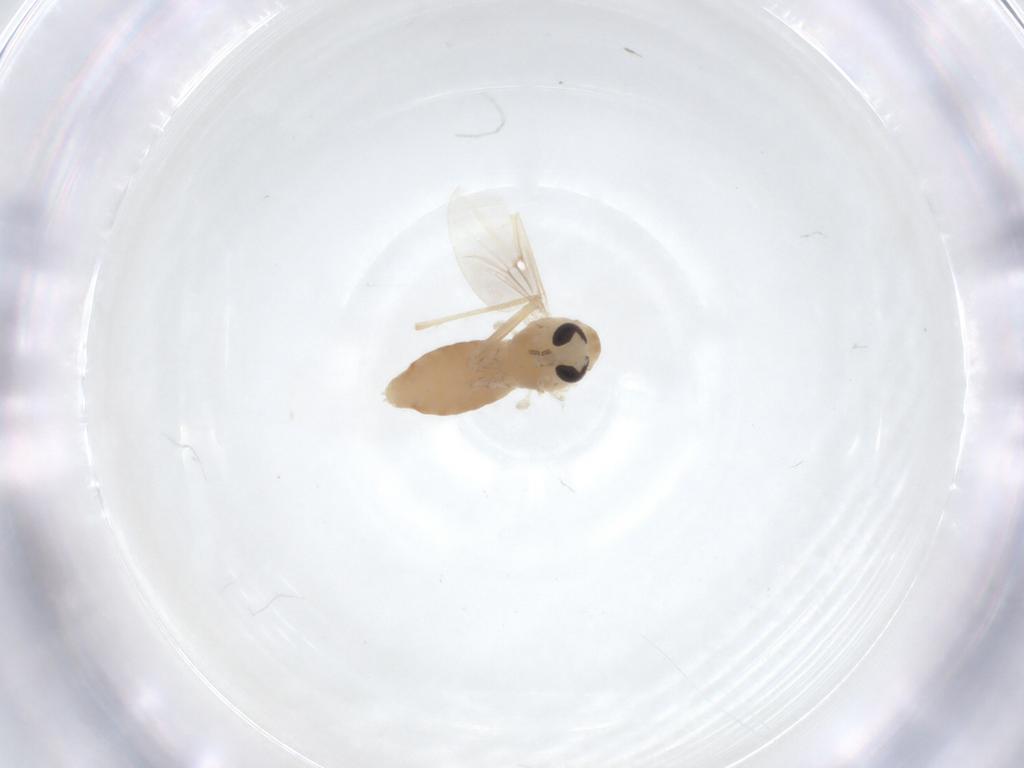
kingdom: Animalia
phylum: Arthropoda
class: Insecta
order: Diptera
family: Chironomidae
